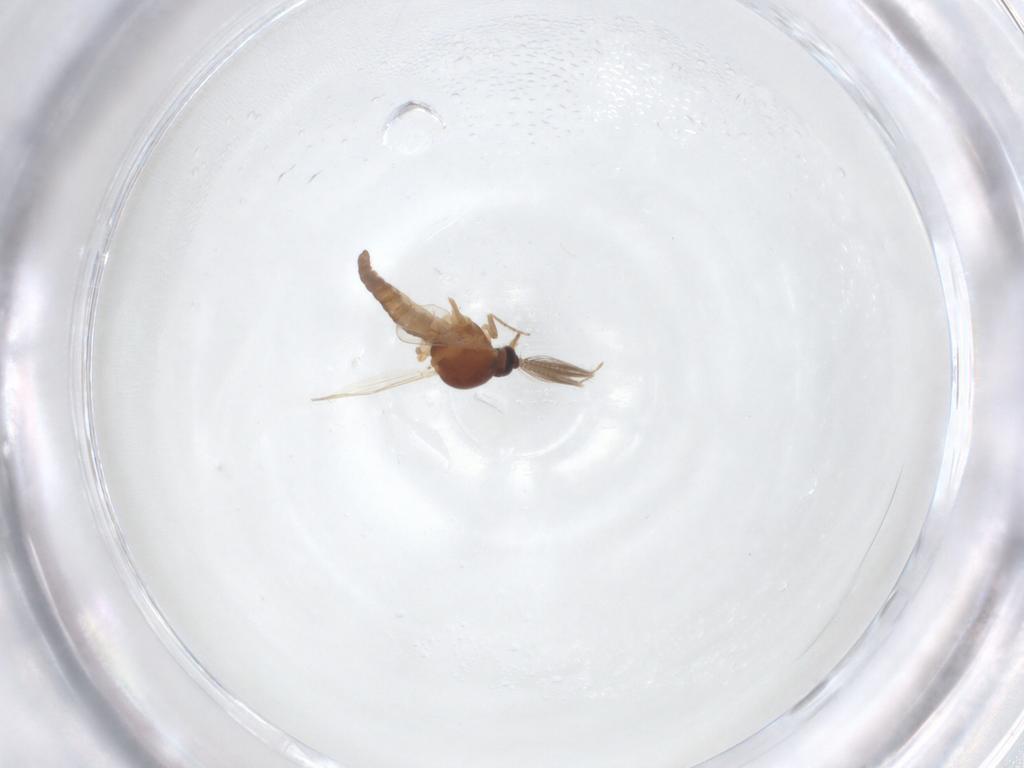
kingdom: Animalia
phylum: Arthropoda
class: Insecta
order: Diptera
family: Ceratopogonidae
